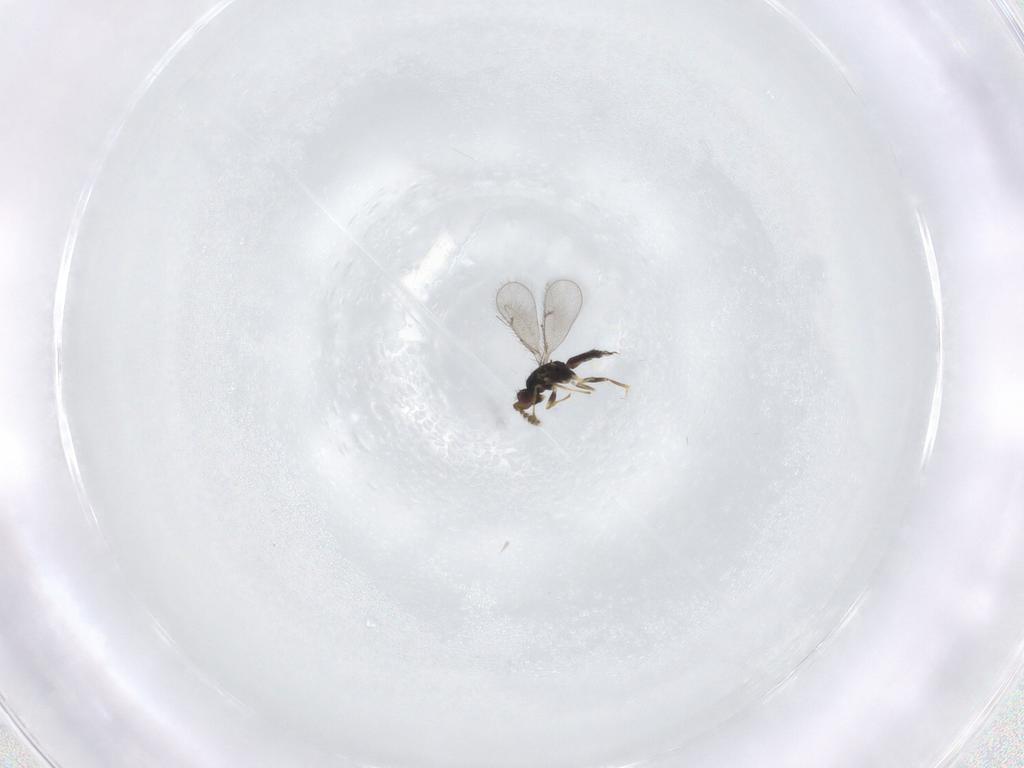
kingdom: Animalia
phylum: Arthropoda
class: Insecta
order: Hymenoptera
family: Eulophidae
